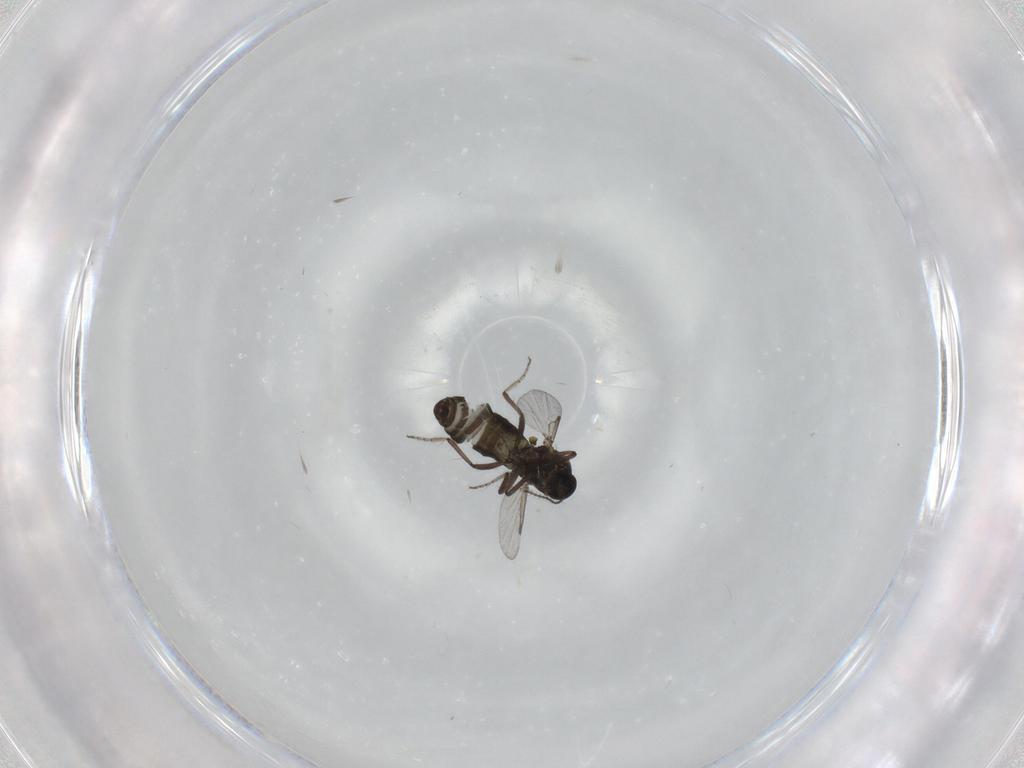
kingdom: Animalia
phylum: Arthropoda
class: Insecta
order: Diptera
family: Ceratopogonidae
